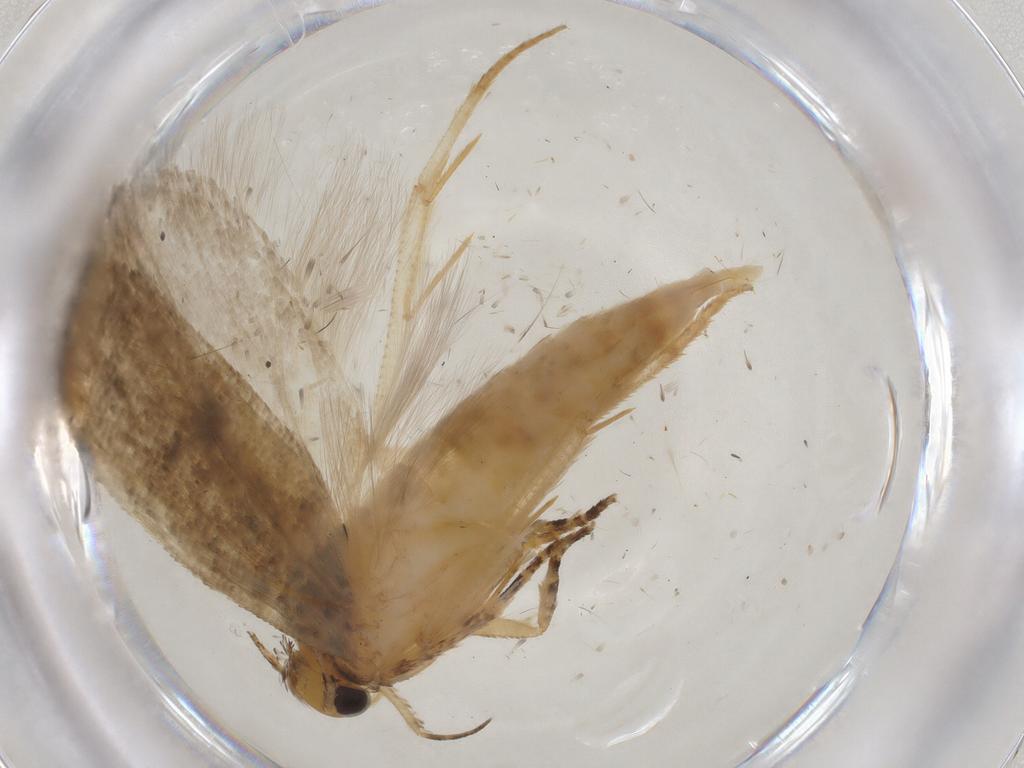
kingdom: Animalia
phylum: Arthropoda
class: Insecta
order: Lepidoptera
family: Gelechiidae
